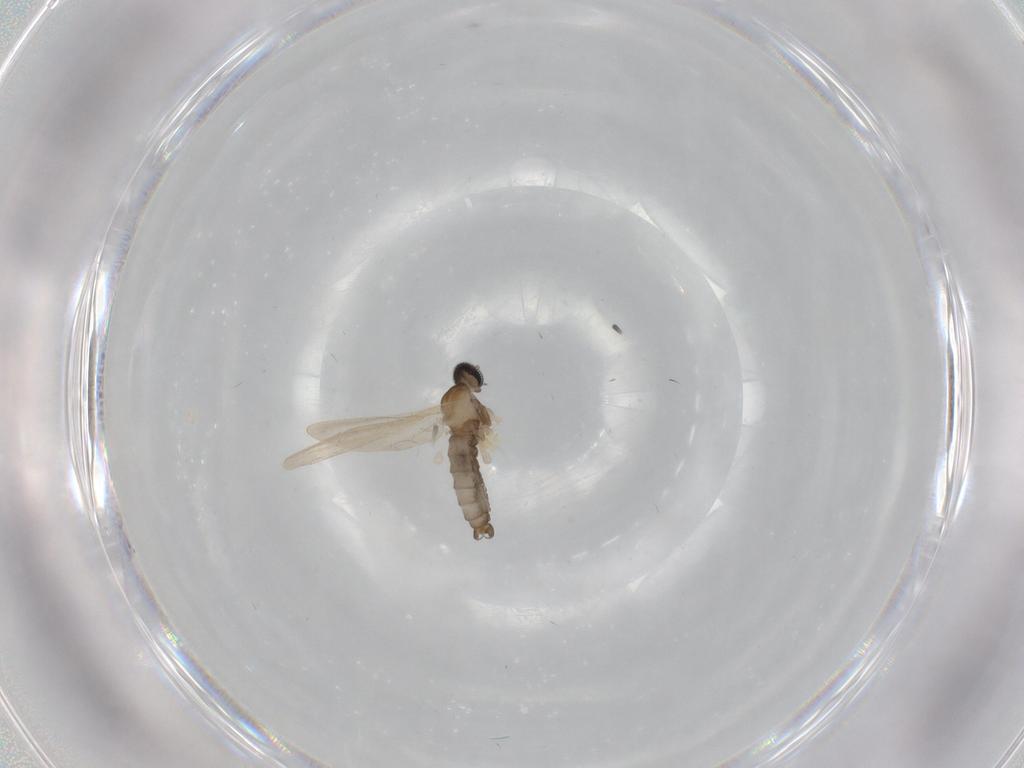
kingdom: Animalia
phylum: Arthropoda
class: Insecta
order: Diptera
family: Cecidomyiidae
